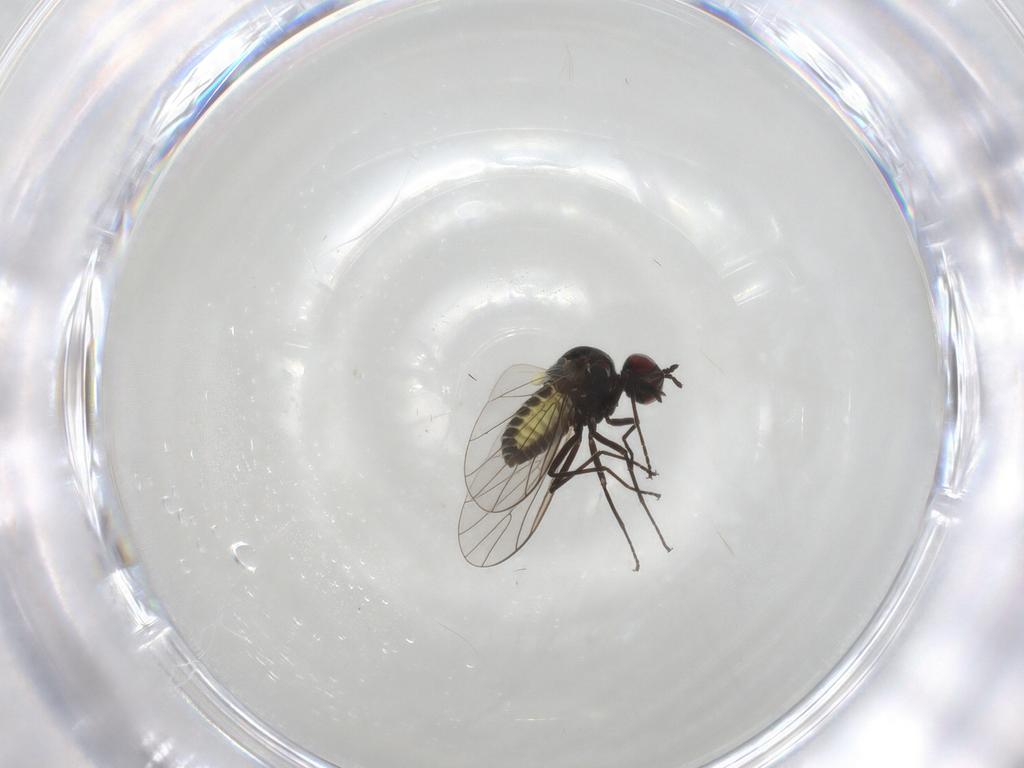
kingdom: Animalia
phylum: Arthropoda
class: Insecta
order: Diptera
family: Bombyliidae
